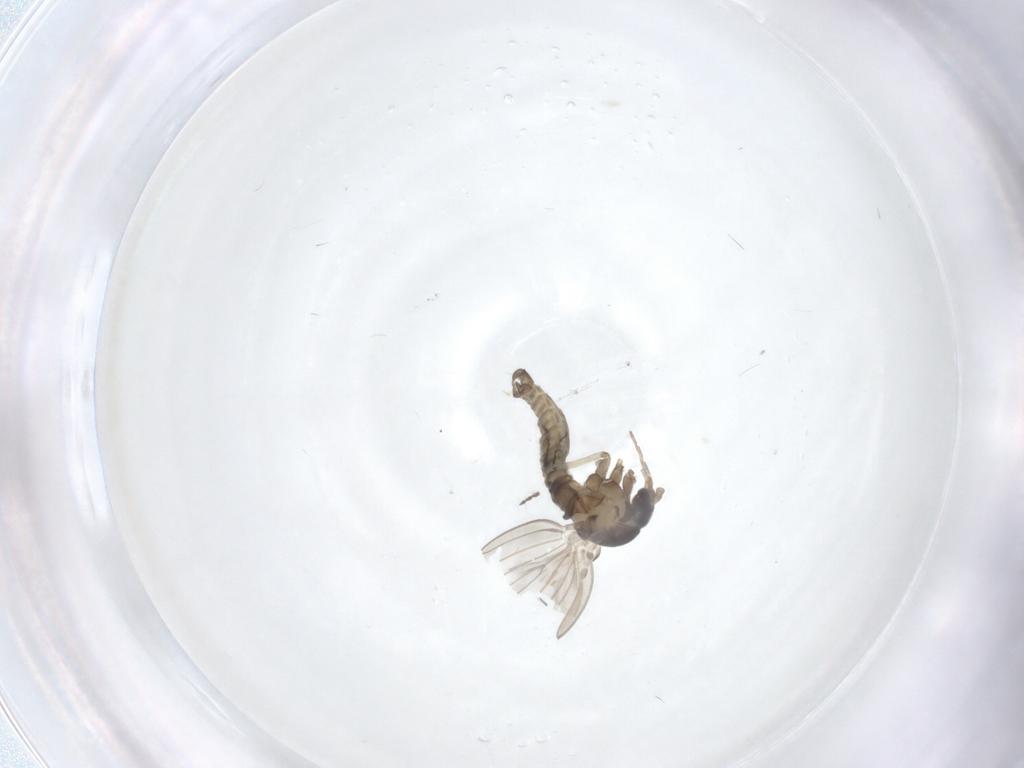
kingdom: Animalia
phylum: Arthropoda
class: Insecta
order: Diptera
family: Psychodidae
